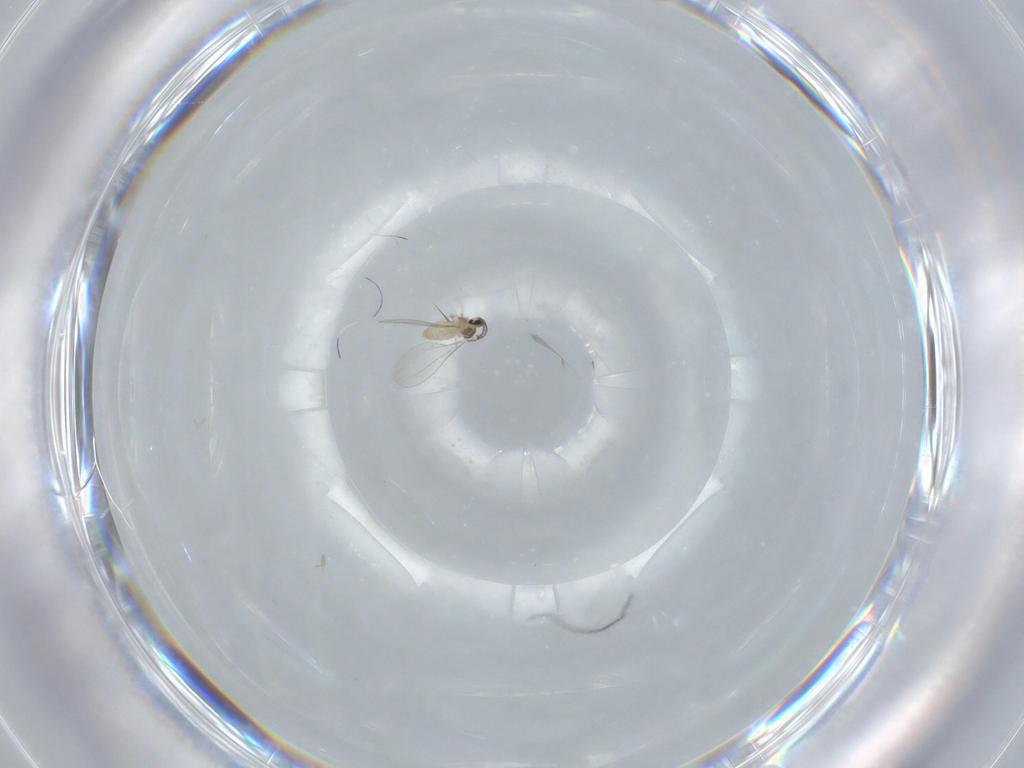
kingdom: Animalia
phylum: Arthropoda
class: Insecta
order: Diptera
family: Cecidomyiidae
